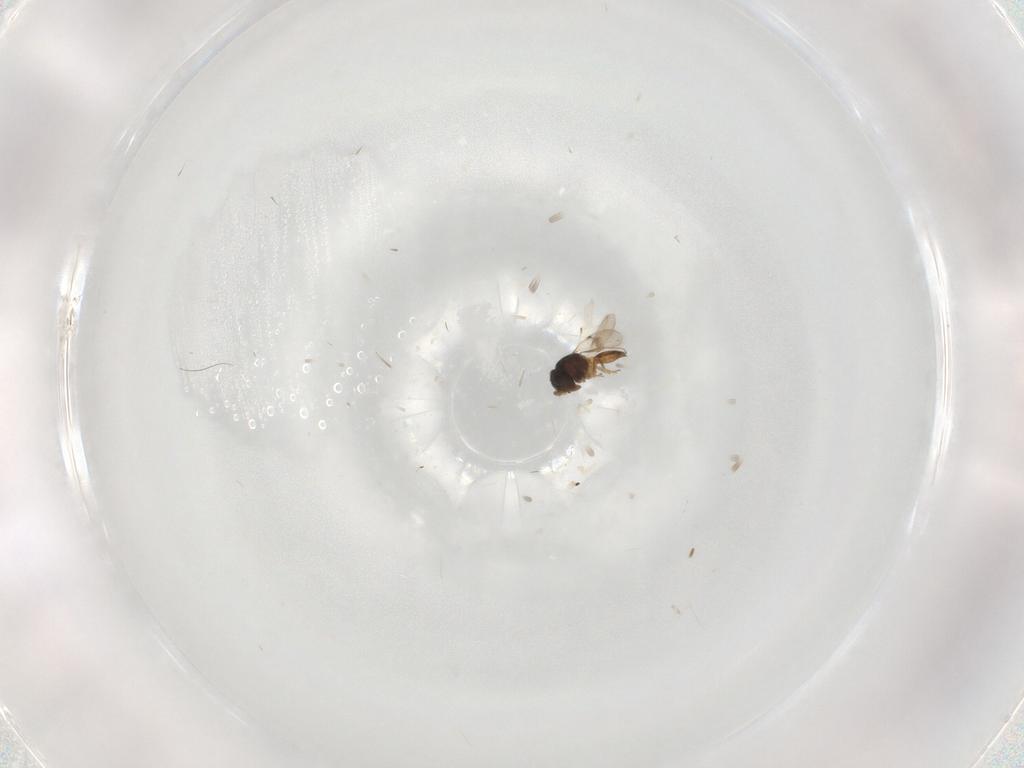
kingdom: Animalia
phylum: Arthropoda
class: Insecta
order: Hymenoptera
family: Scelionidae
